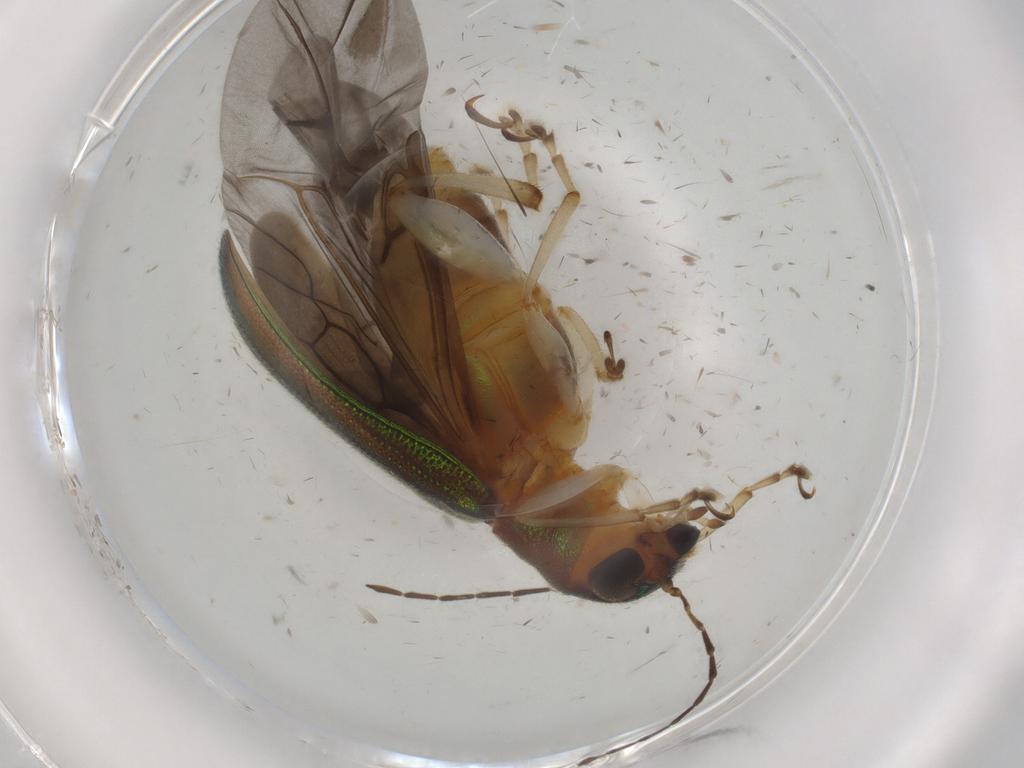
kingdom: Animalia
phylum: Arthropoda
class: Insecta
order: Coleoptera
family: Chrysomelidae
